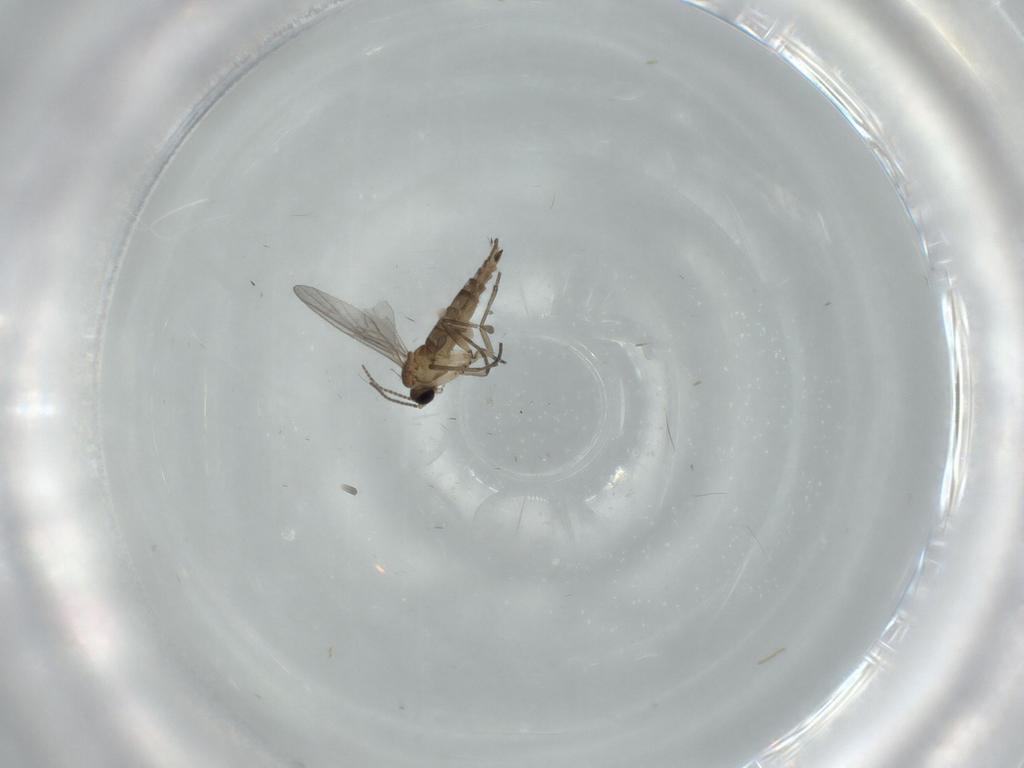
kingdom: Animalia
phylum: Arthropoda
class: Insecta
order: Diptera
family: Sciaridae
